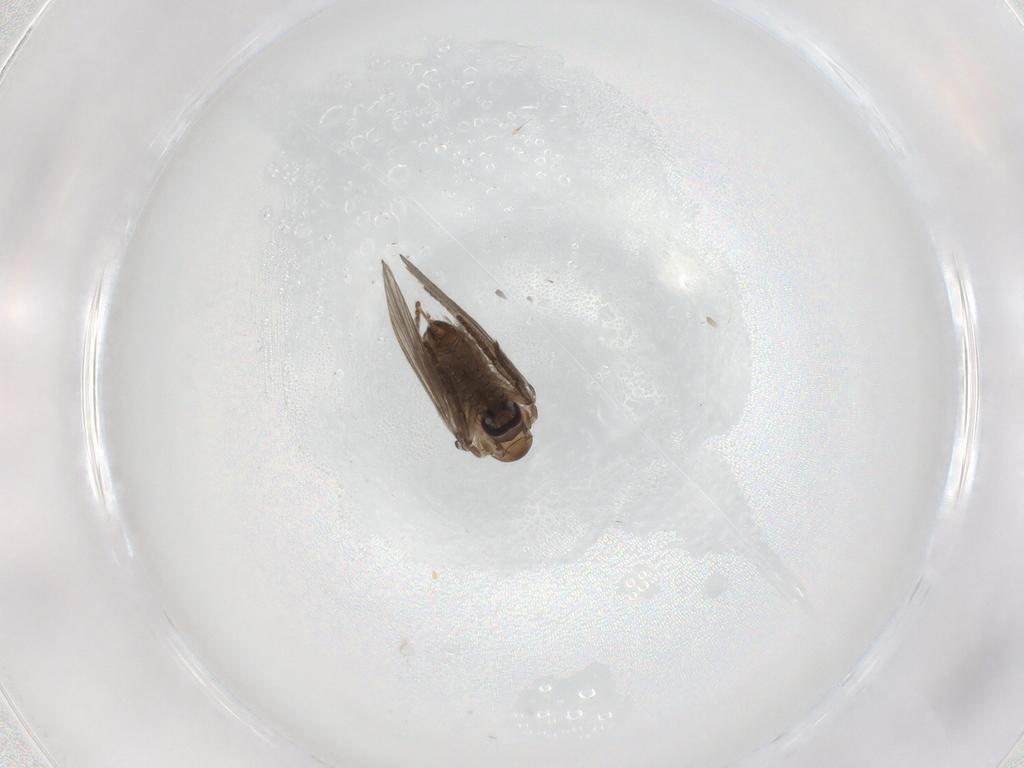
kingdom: Animalia
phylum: Arthropoda
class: Insecta
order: Diptera
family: Psychodidae
